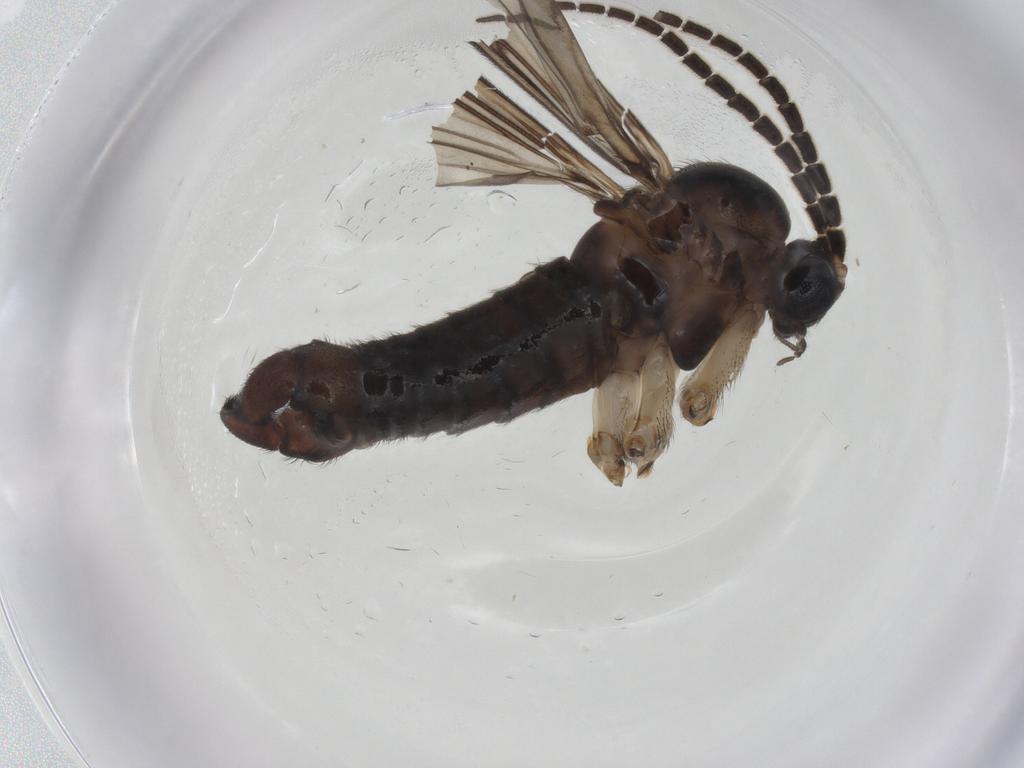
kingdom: Animalia
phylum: Arthropoda
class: Insecta
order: Diptera
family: Sciaridae
